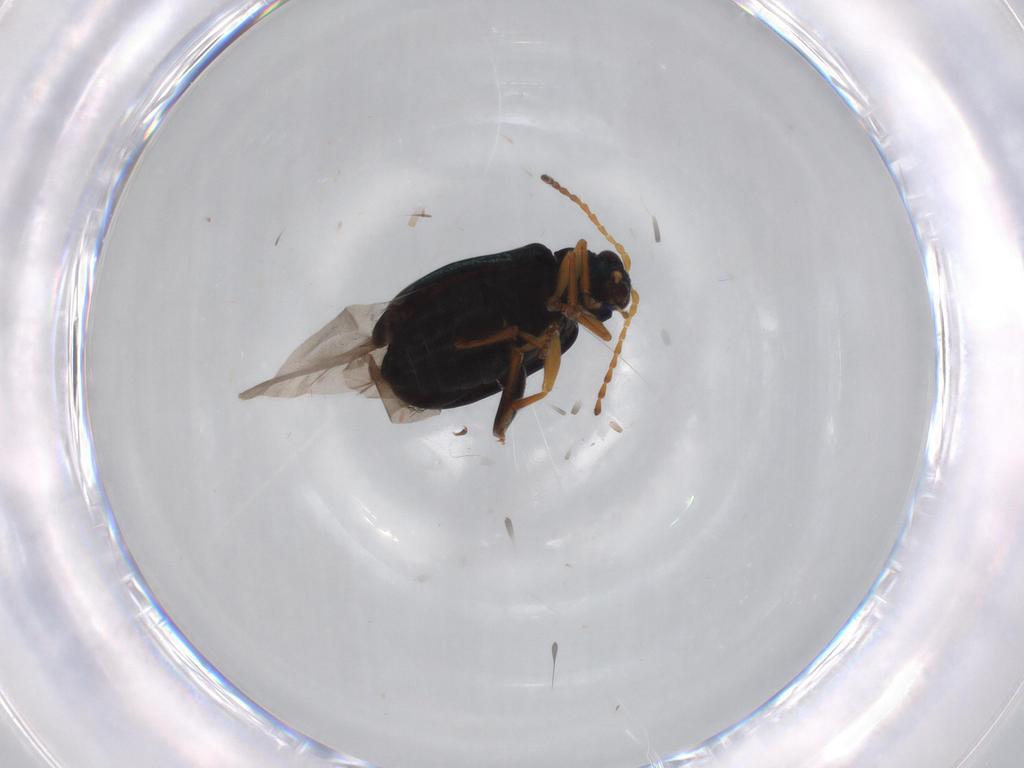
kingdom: Animalia
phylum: Arthropoda
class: Insecta
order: Coleoptera
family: Chrysomelidae
